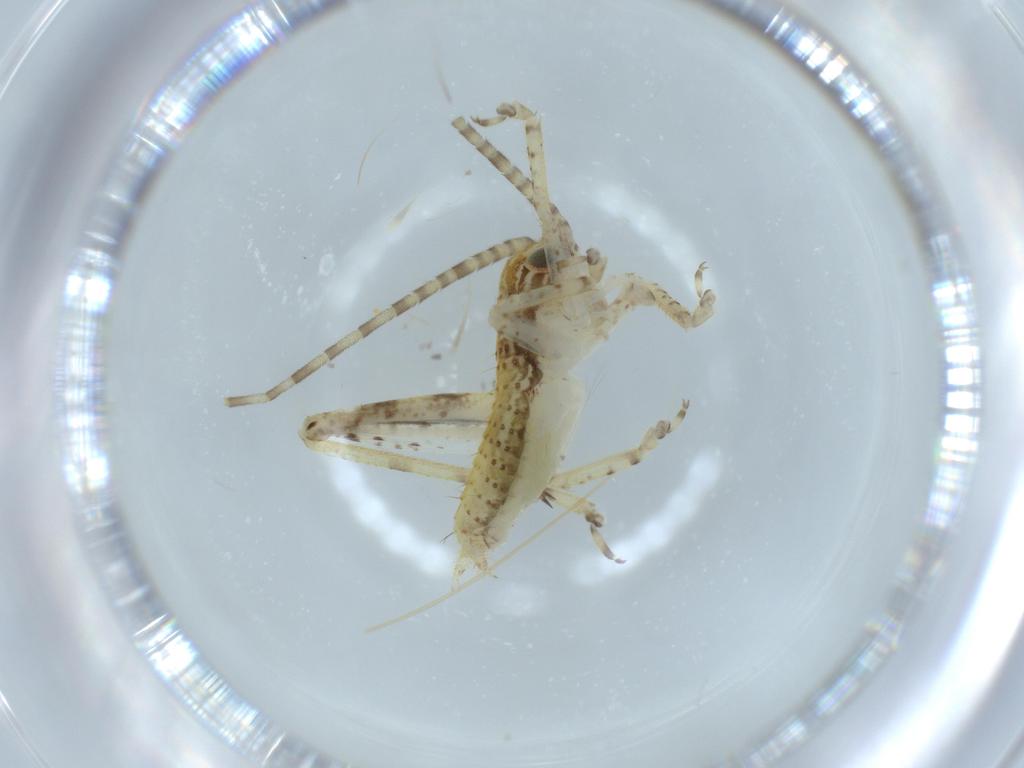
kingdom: Animalia
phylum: Arthropoda
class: Insecta
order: Orthoptera
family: Gryllidae
